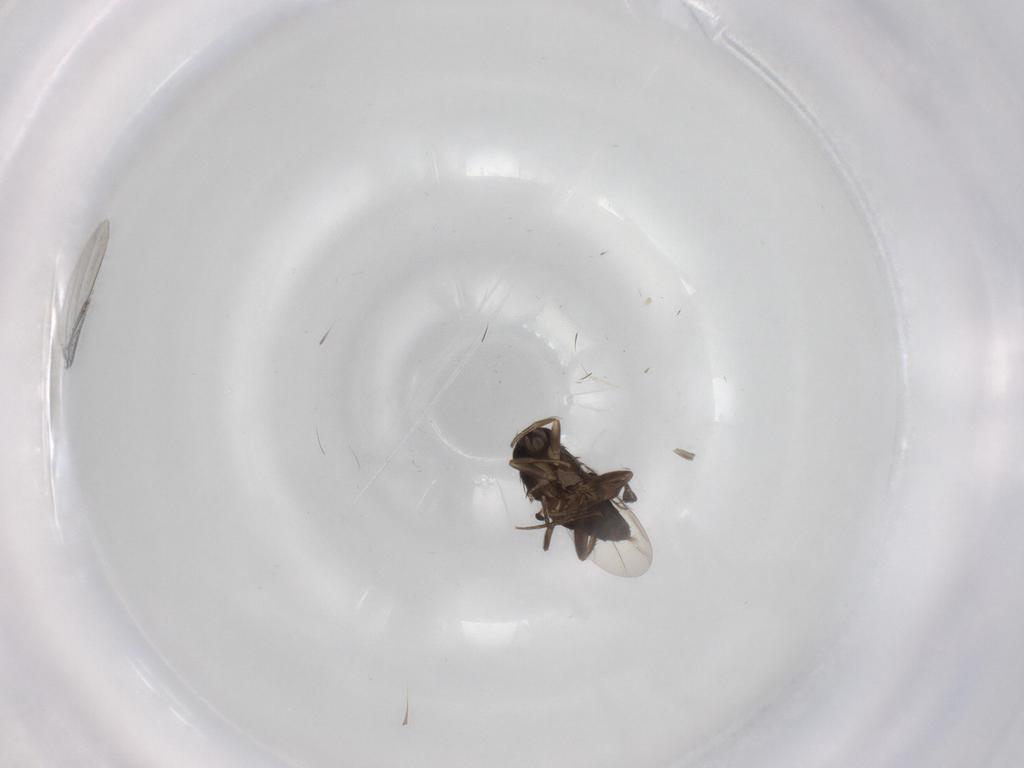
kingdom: Animalia
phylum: Arthropoda
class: Insecta
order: Diptera
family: Phoridae
